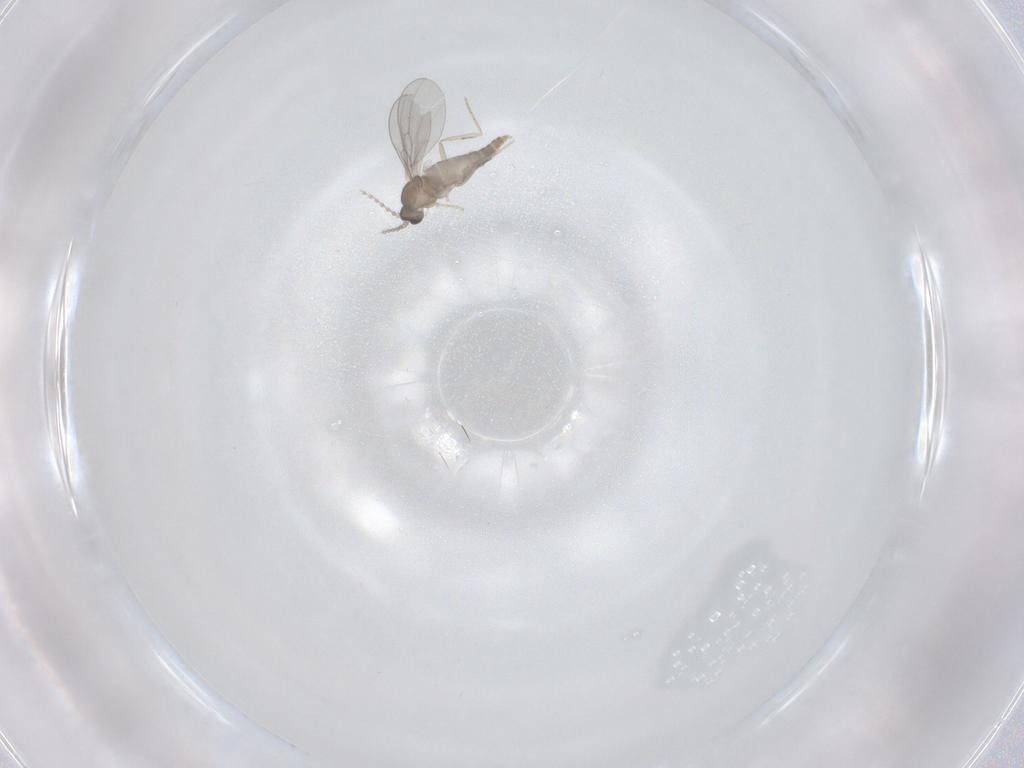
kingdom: Animalia
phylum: Arthropoda
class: Insecta
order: Diptera
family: Cecidomyiidae
